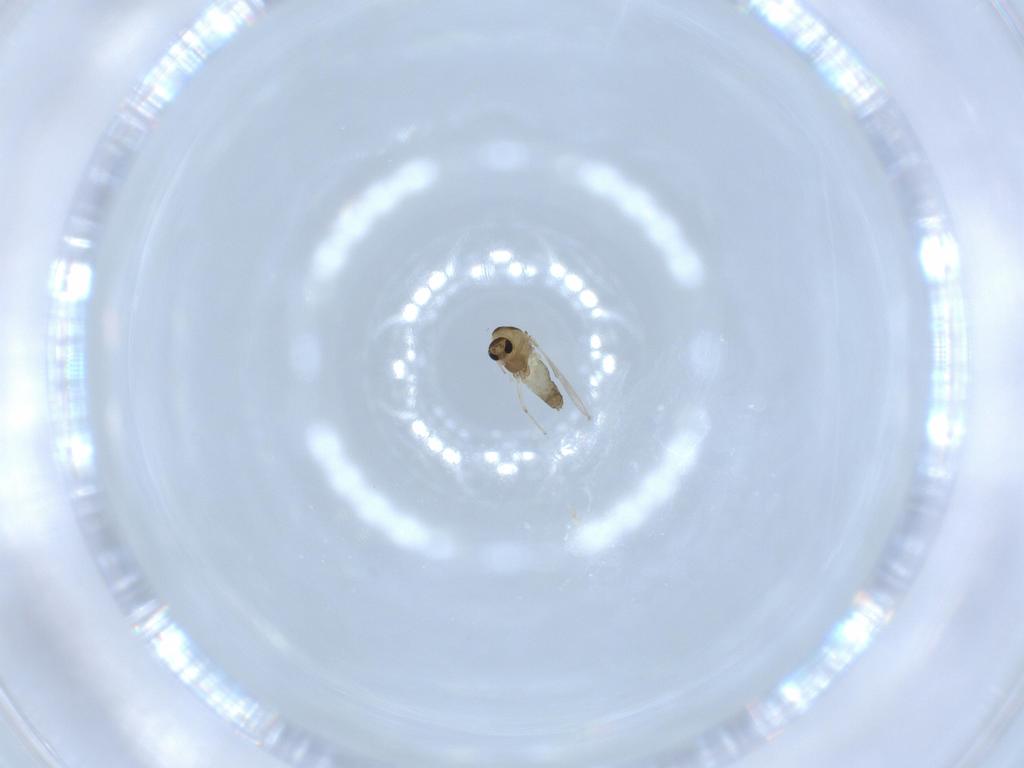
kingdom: Animalia
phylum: Arthropoda
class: Insecta
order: Diptera
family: Chironomidae
